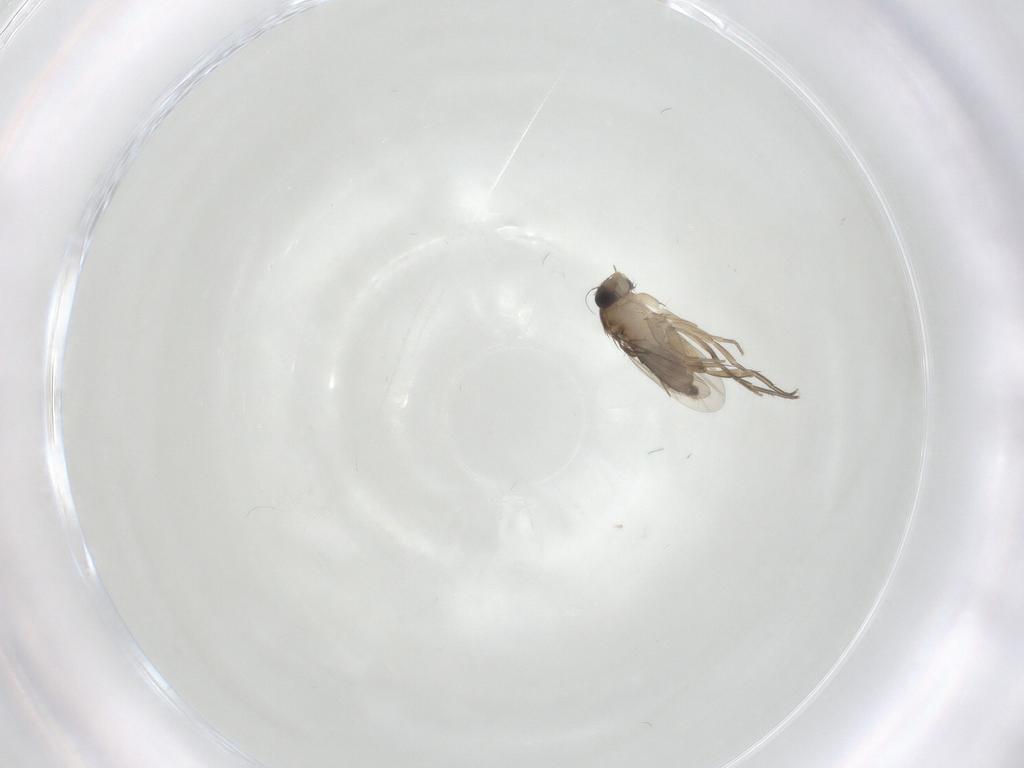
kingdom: Animalia
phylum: Arthropoda
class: Insecta
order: Diptera
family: Phoridae
